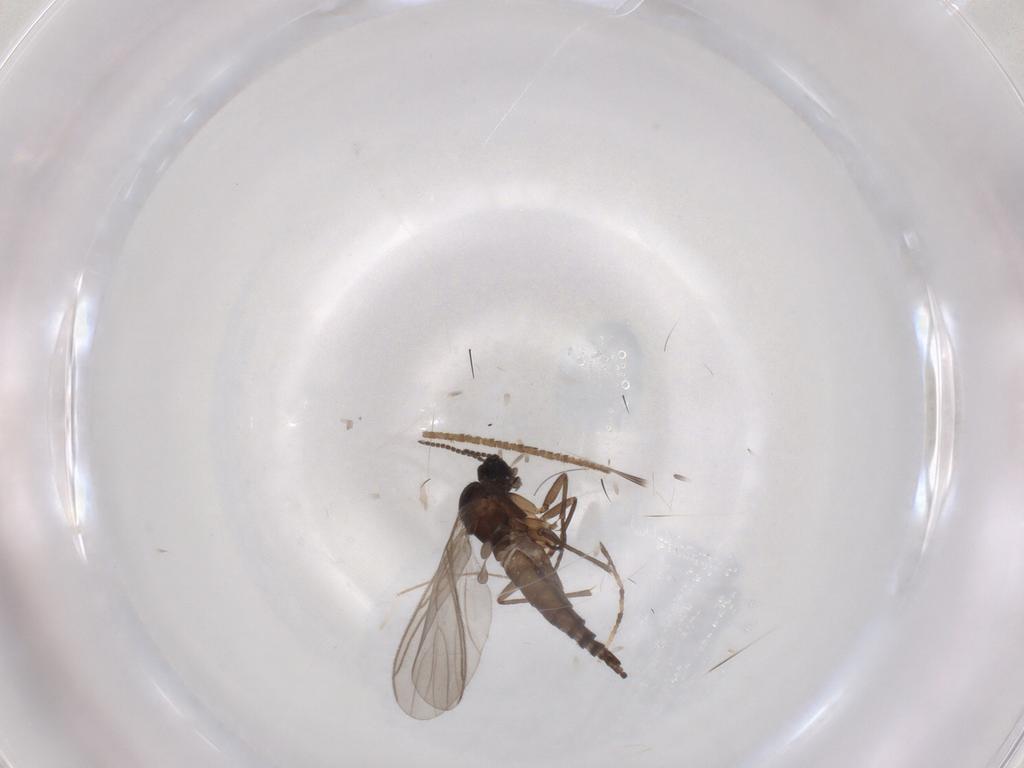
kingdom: Animalia
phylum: Arthropoda
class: Insecta
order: Diptera
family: Sciaridae
